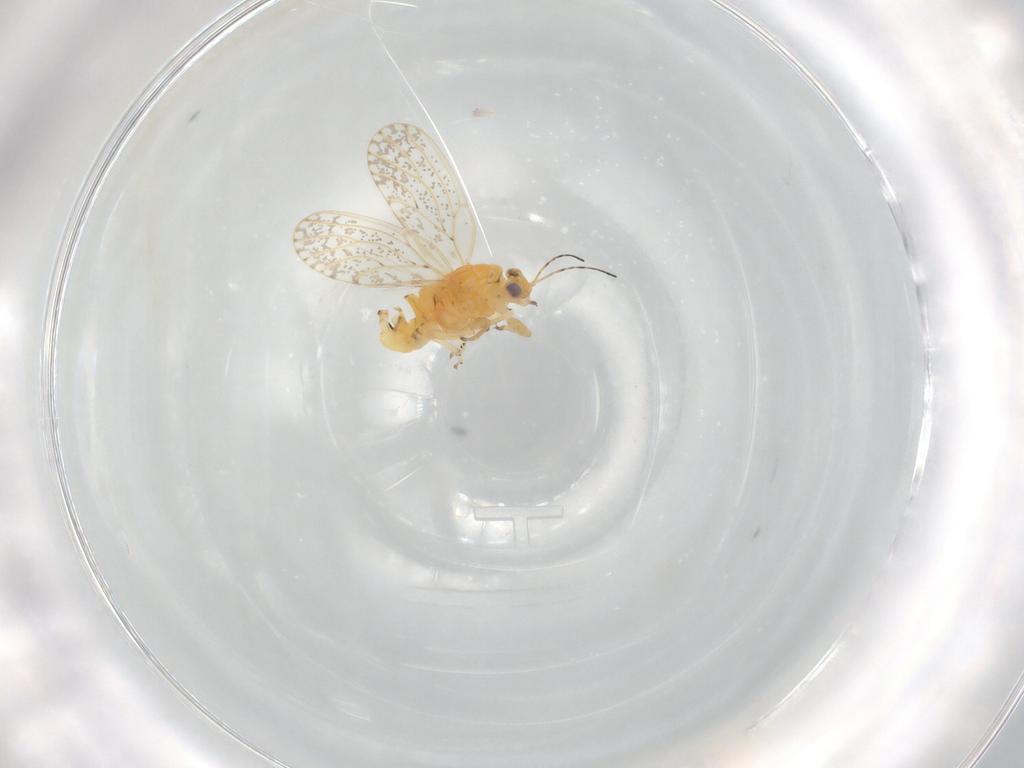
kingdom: Animalia
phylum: Arthropoda
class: Insecta
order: Hemiptera
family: Psyllidae
